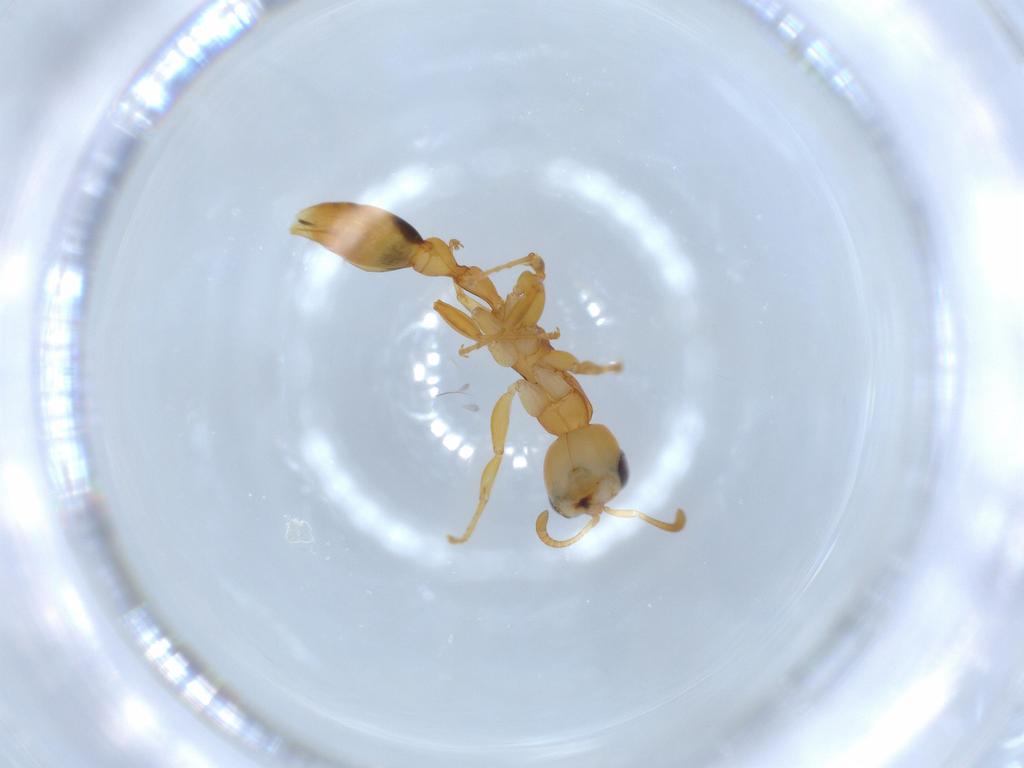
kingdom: Animalia
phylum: Arthropoda
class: Insecta
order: Hymenoptera
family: Formicidae
